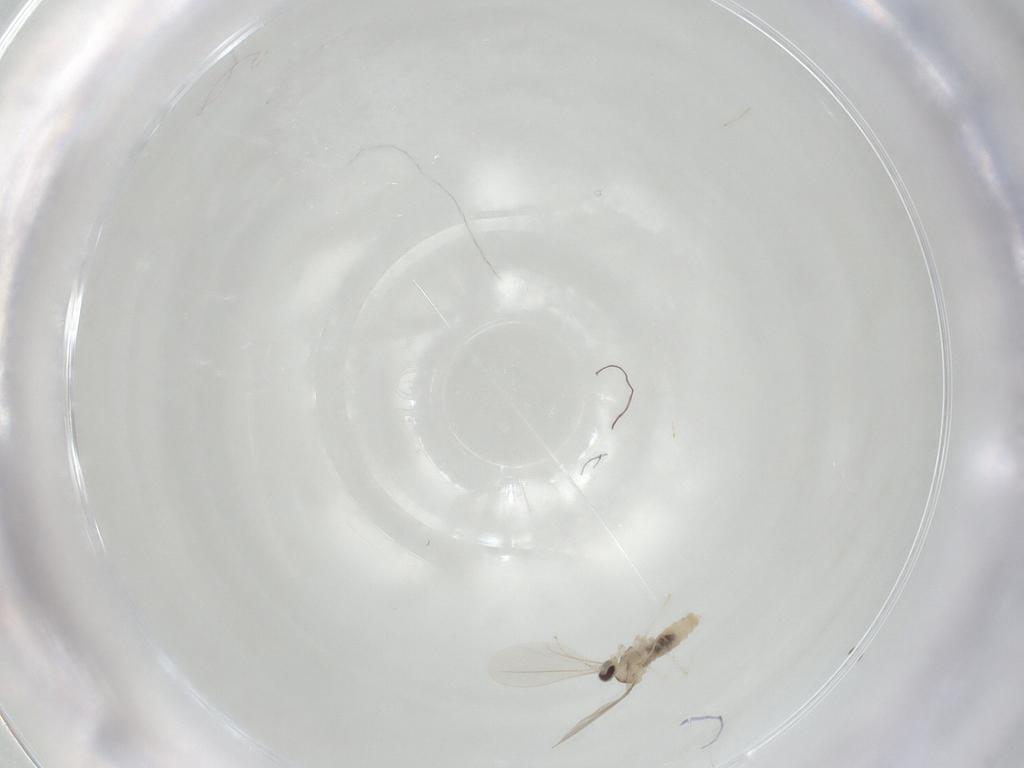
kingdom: Animalia
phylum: Arthropoda
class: Insecta
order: Diptera
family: Cecidomyiidae
